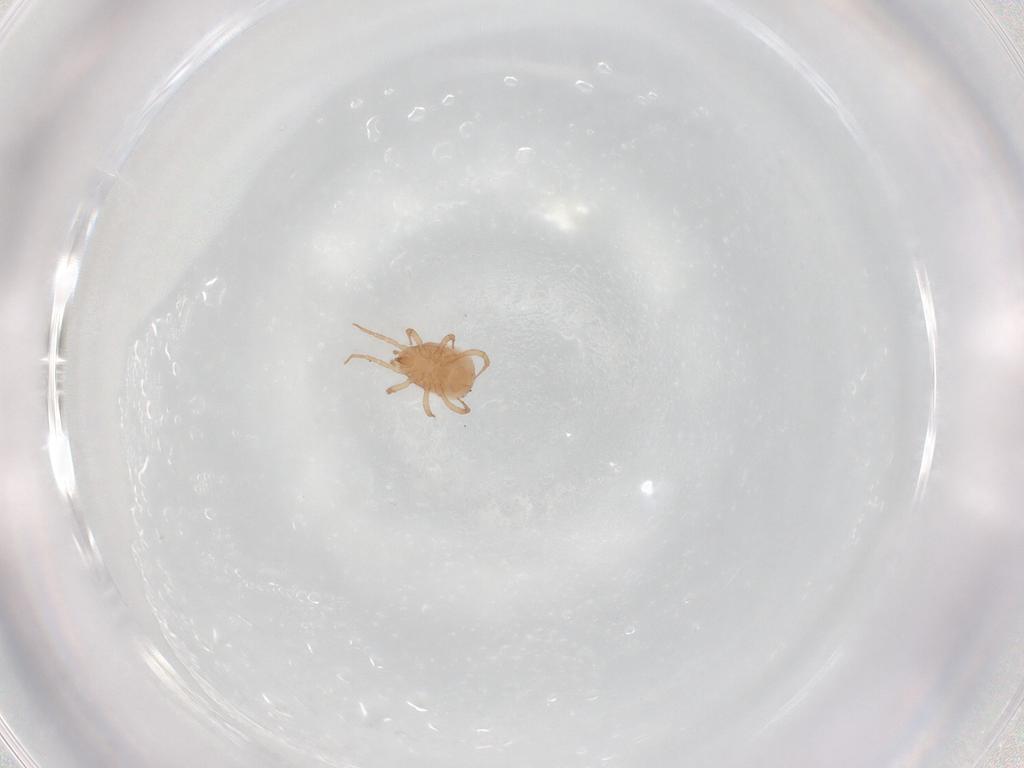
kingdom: Animalia
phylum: Arthropoda
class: Arachnida
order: Mesostigmata
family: Blattisociidae
